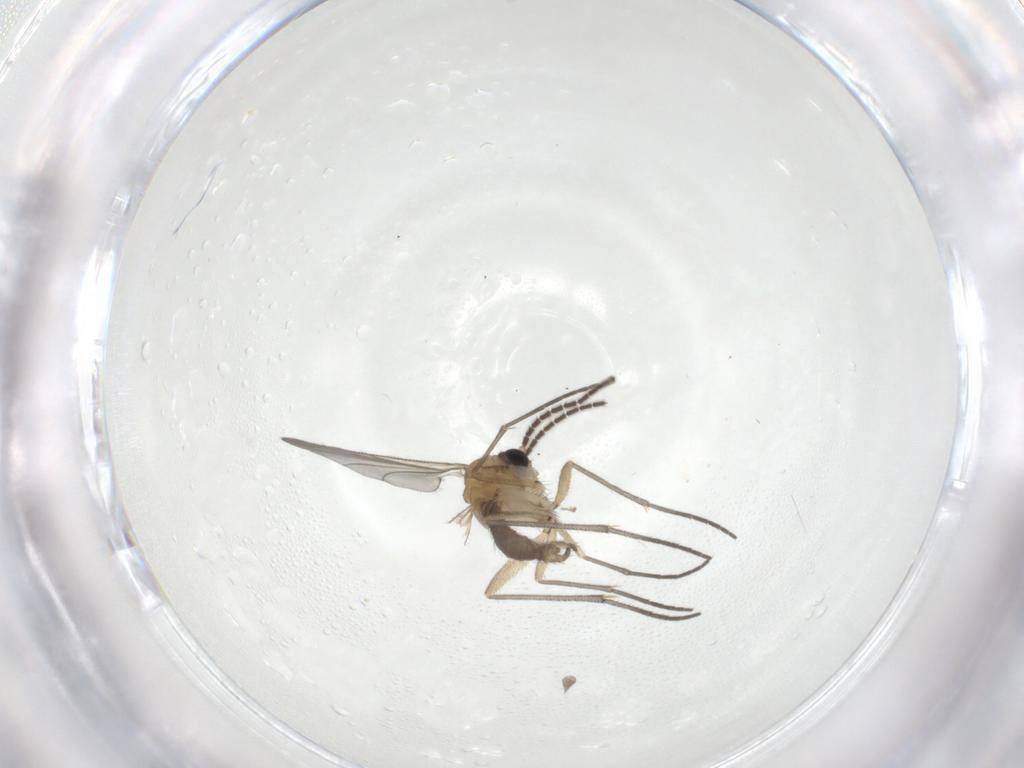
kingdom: Animalia
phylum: Arthropoda
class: Insecta
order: Diptera
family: Sciaridae
